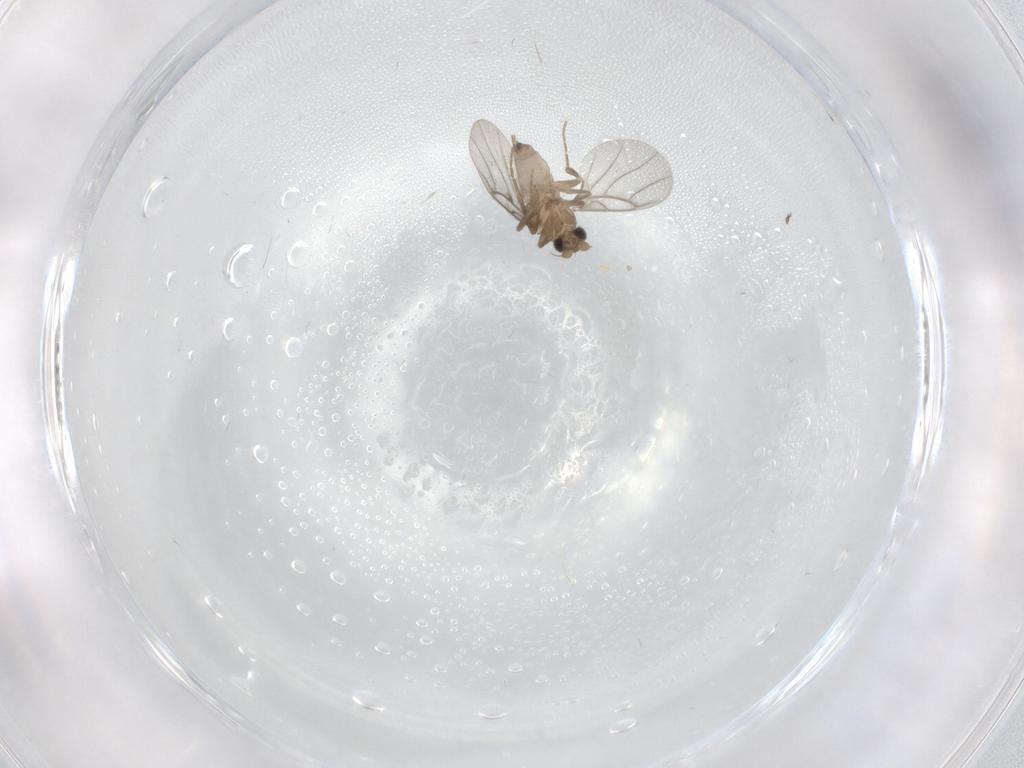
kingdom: Animalia
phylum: Arthropoda
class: Insecta
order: Diptera
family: Phoridae
